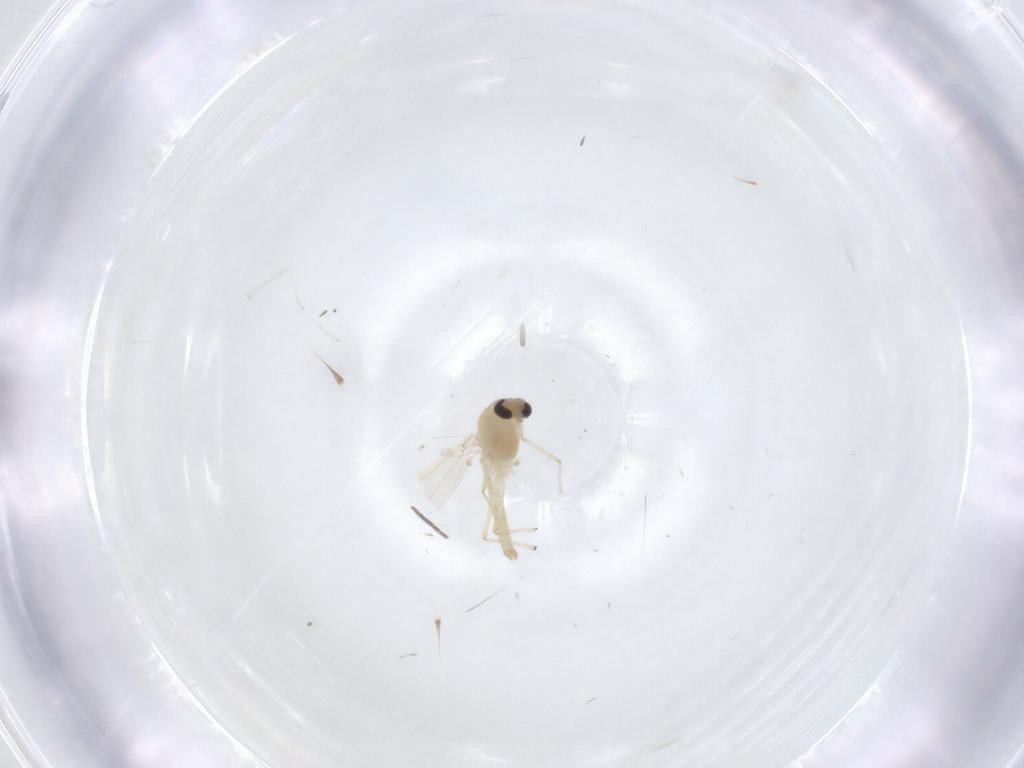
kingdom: Animalia
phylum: Arthropoda
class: Insecta
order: Diptera
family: Chironomidae
